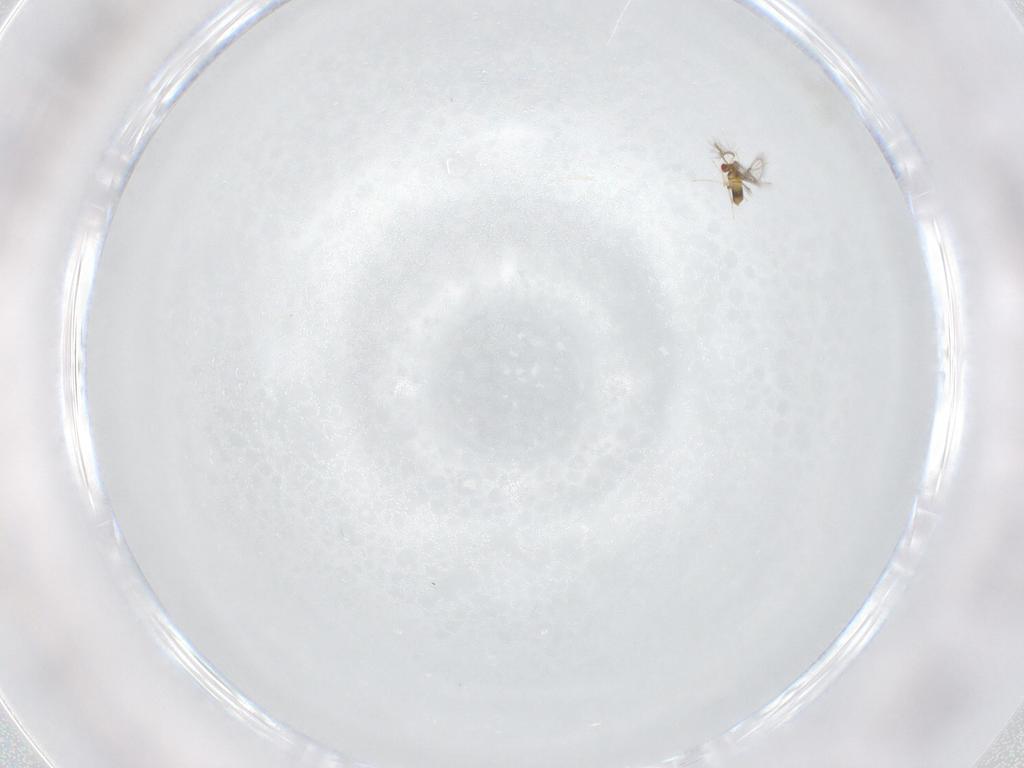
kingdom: Animalia
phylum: Arthropoda
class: Insecta
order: Hymenoptera
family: Trichogrammatidae
